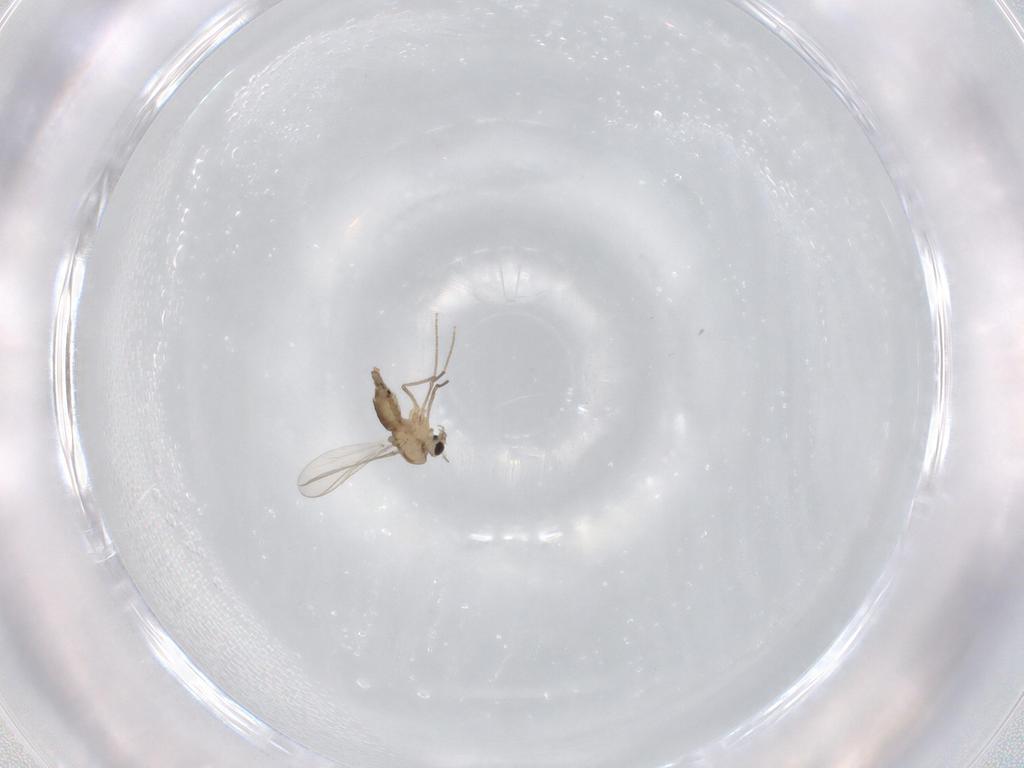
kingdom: Animalia
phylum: Arthropoda
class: Insecta
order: Diptera
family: Chironomidae
